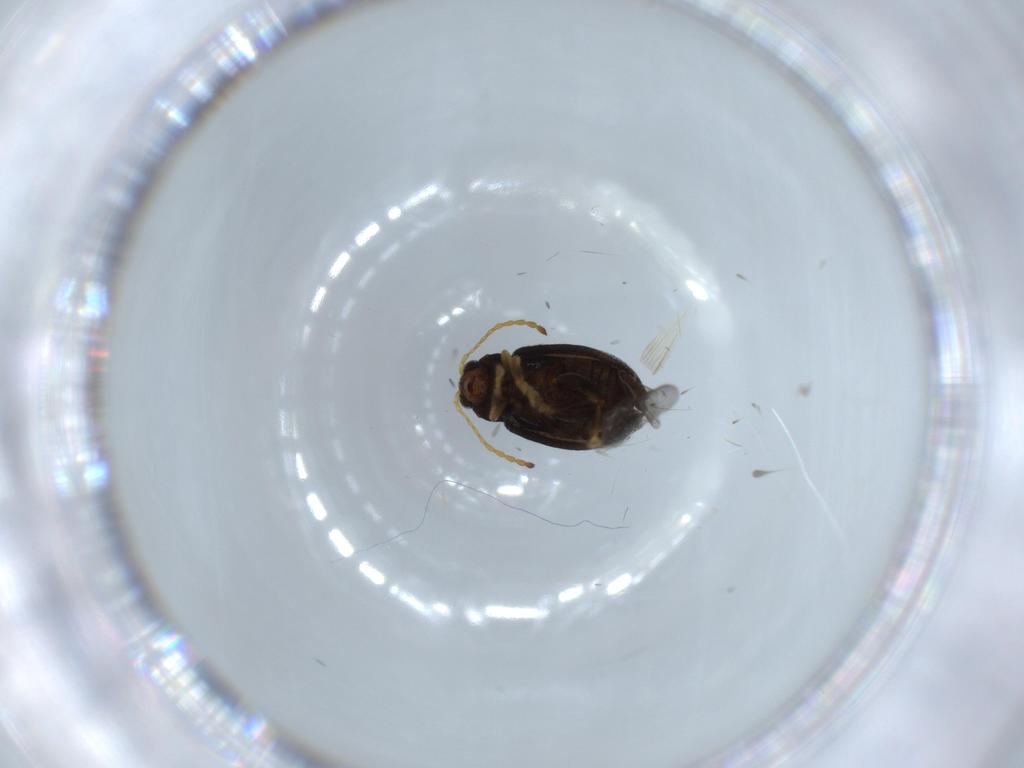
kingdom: Animalia
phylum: Arthropoda
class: Insecta
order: Coleoptera
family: Chrysomelidae
